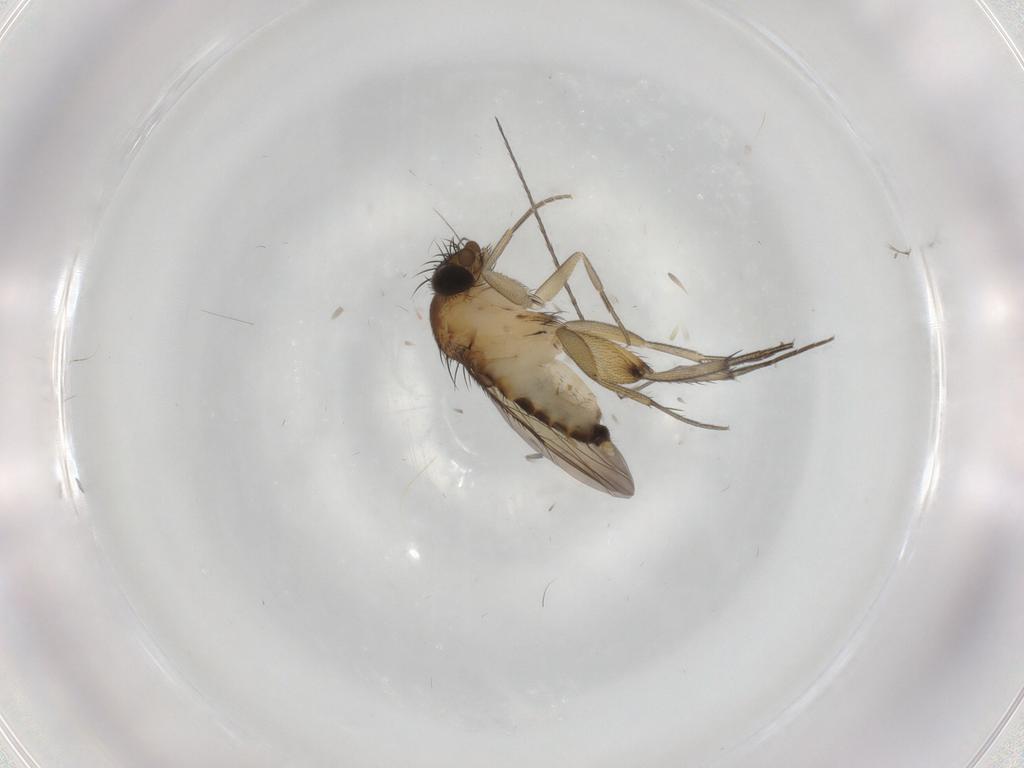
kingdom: Animalia
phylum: Arthropoda
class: Insecta
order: Diptera
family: Phoridae
